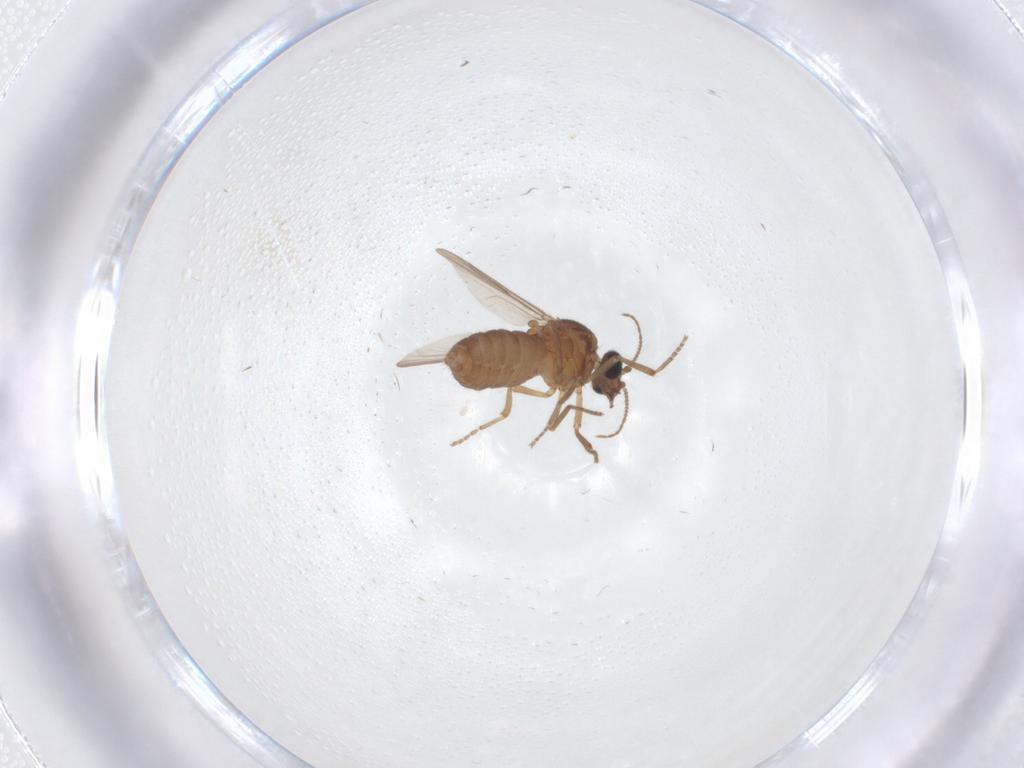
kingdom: Animalia
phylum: Arthropoda
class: Insecta
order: Diptera
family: Ceratopogonidae
